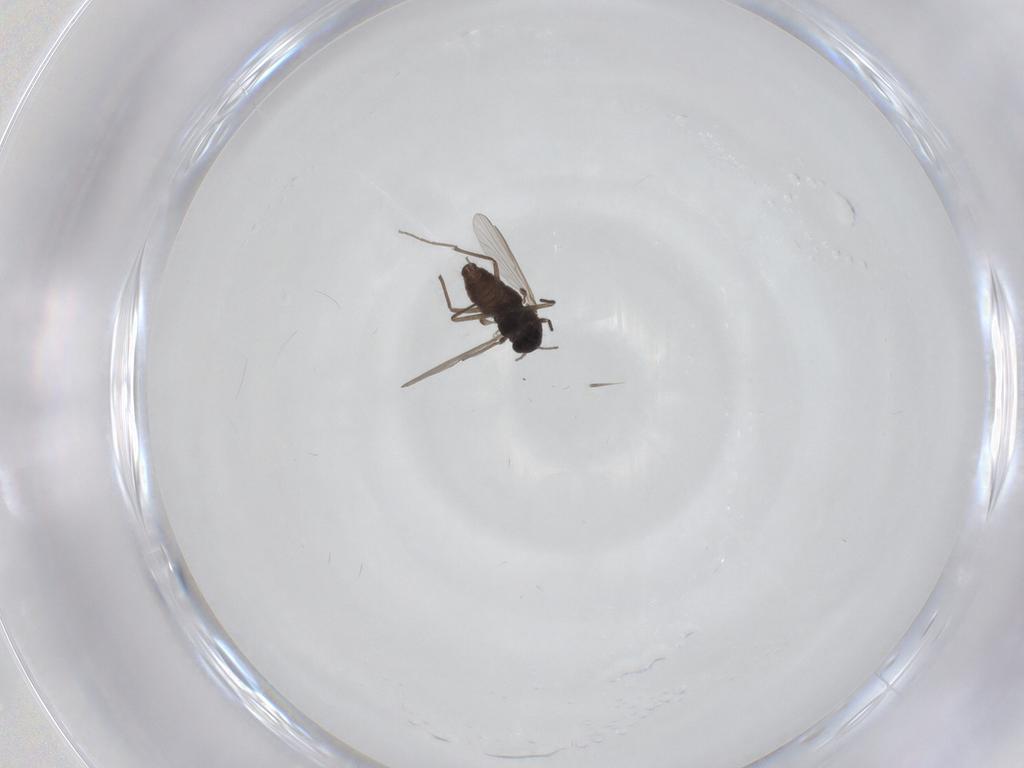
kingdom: Animalia
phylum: Arthropoda
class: Insecta
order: Diptera
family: Chironomidae
